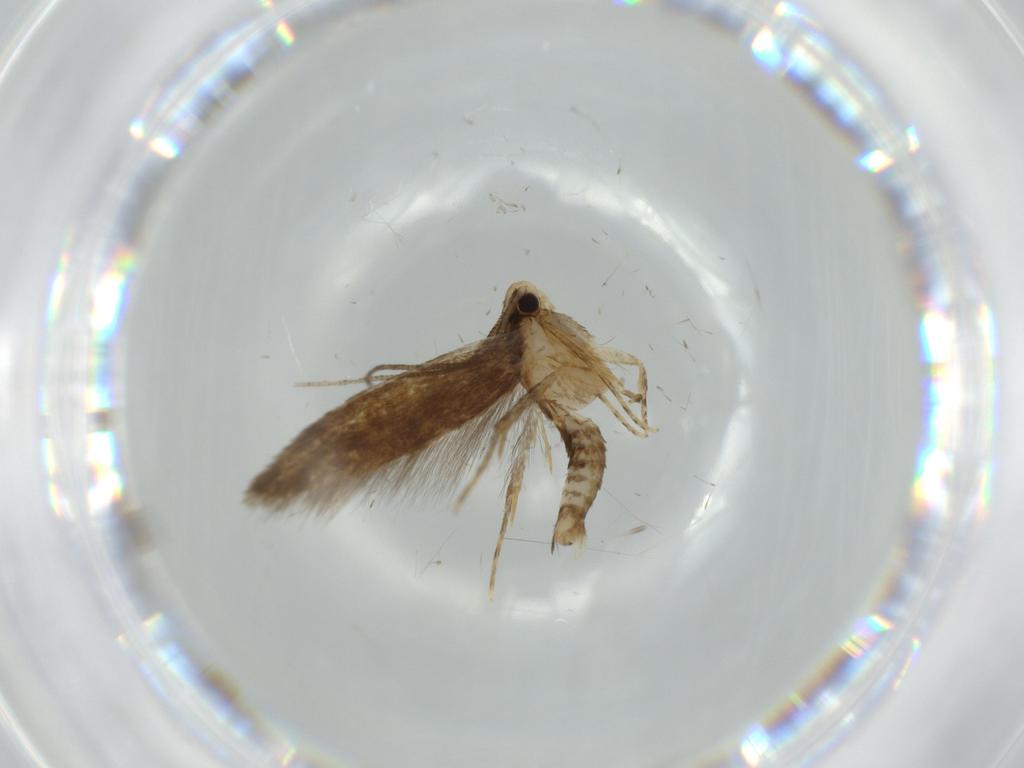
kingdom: Animalia
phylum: Arthropoda
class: Insecta
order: Lepidoptera
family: Tineidae
